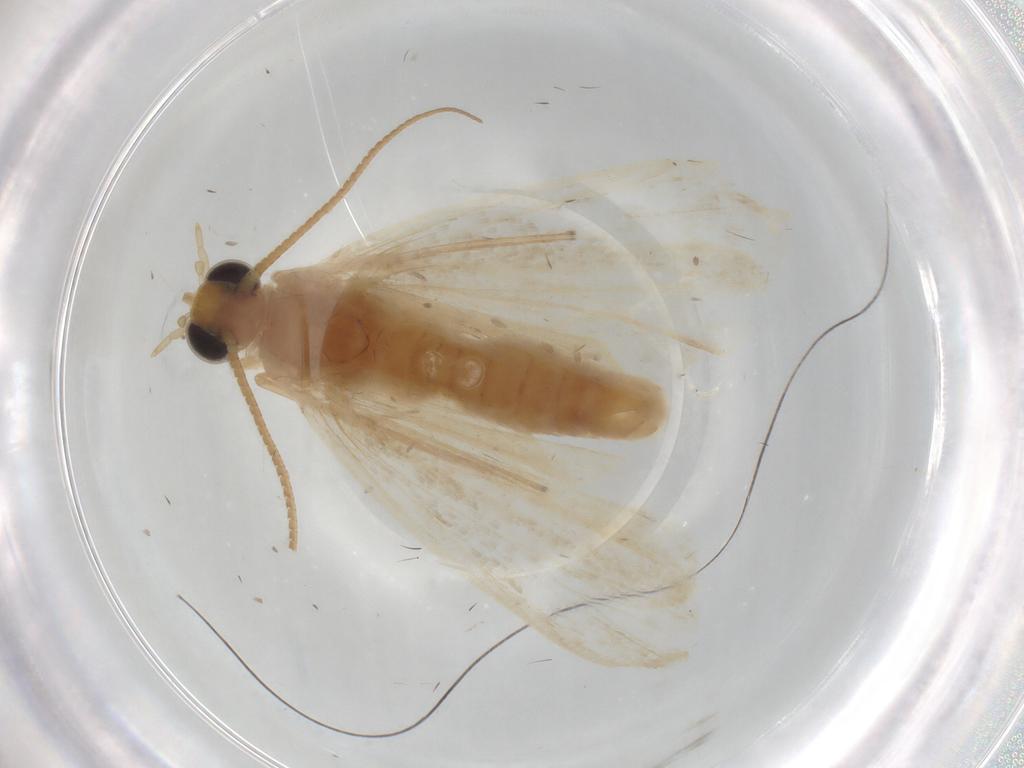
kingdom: Animalia
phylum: Arthropoda
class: Insecta
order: Lepidoptera
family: Pyralidae
